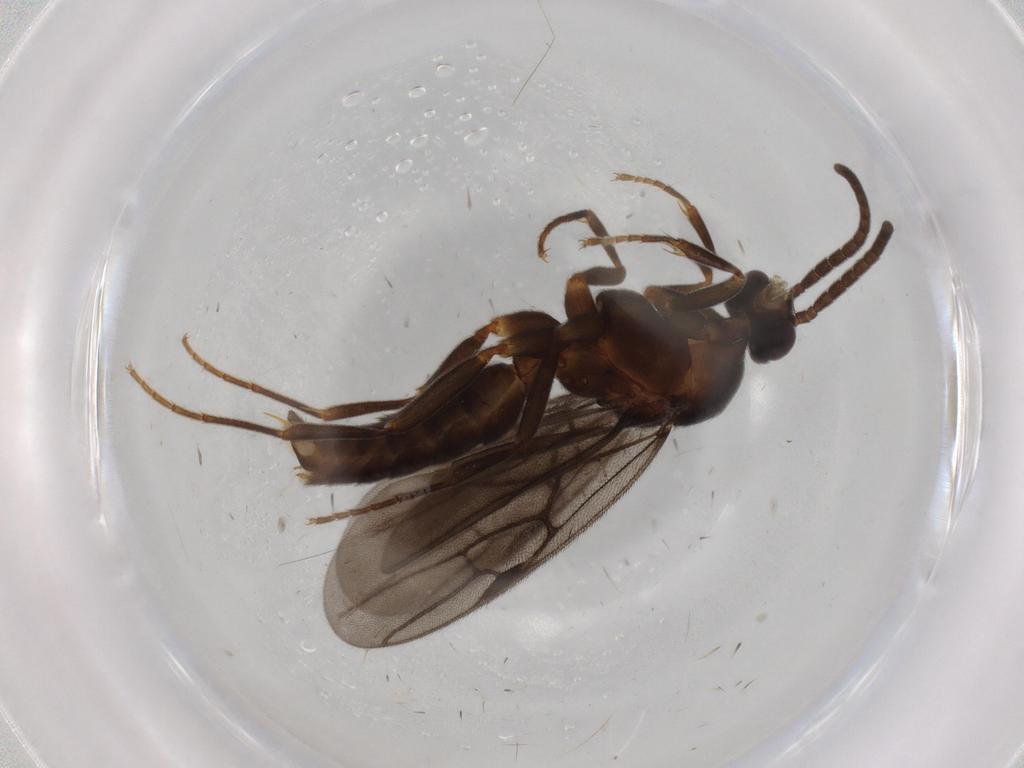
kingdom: Animalia
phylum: Arthropoda
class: Insecta
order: Hymenoptera
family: Formicidae
